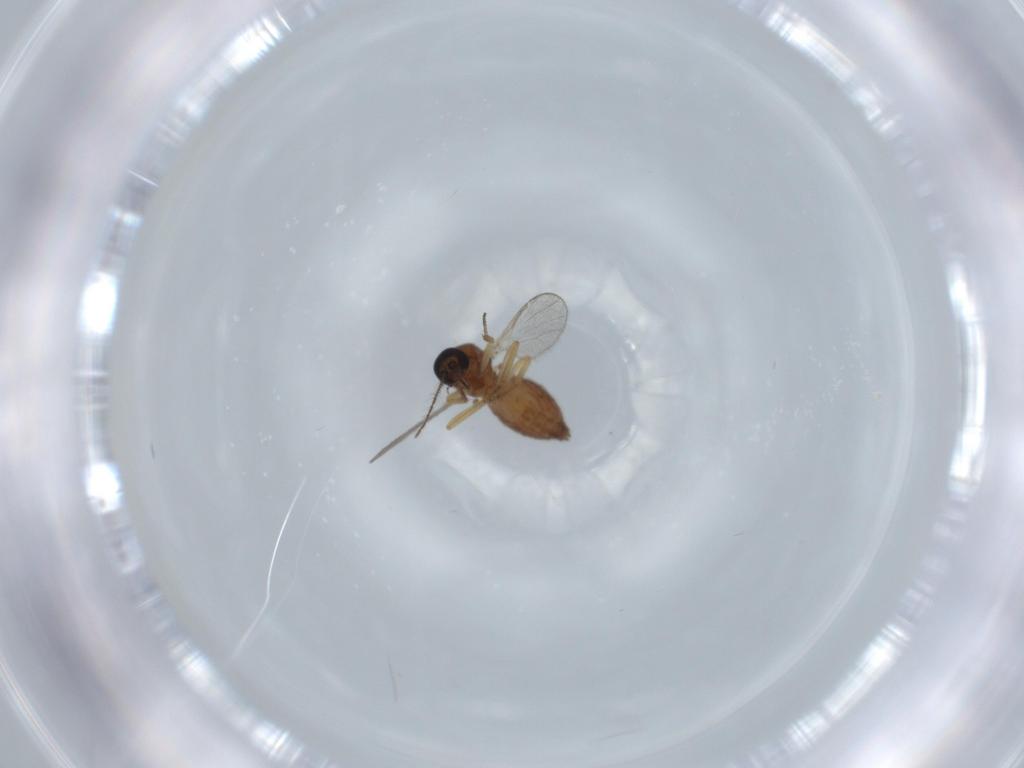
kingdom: Animalia
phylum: Arthropoda
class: Insecta
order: Diptera
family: Ceratopogonidae
